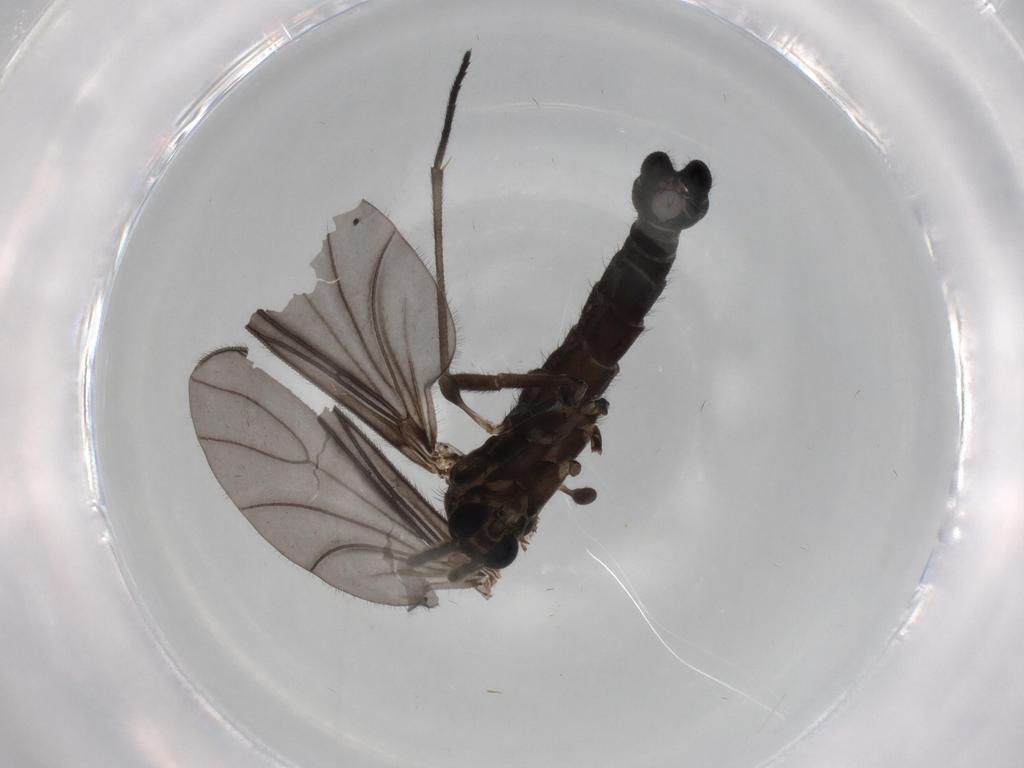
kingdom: Animalia
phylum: Arthropoda
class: Insecta
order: Diptera
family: Sciaridae
